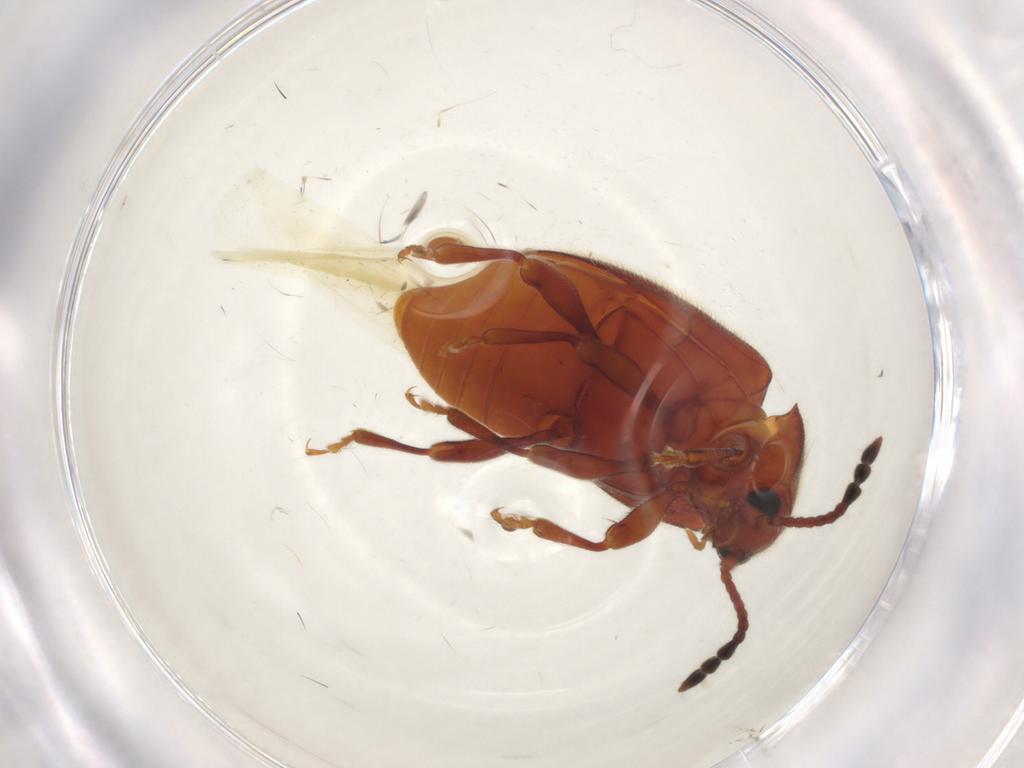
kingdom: Animalia
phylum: Arthropoda
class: Insecta
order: Coleoptera
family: Endomychidae
